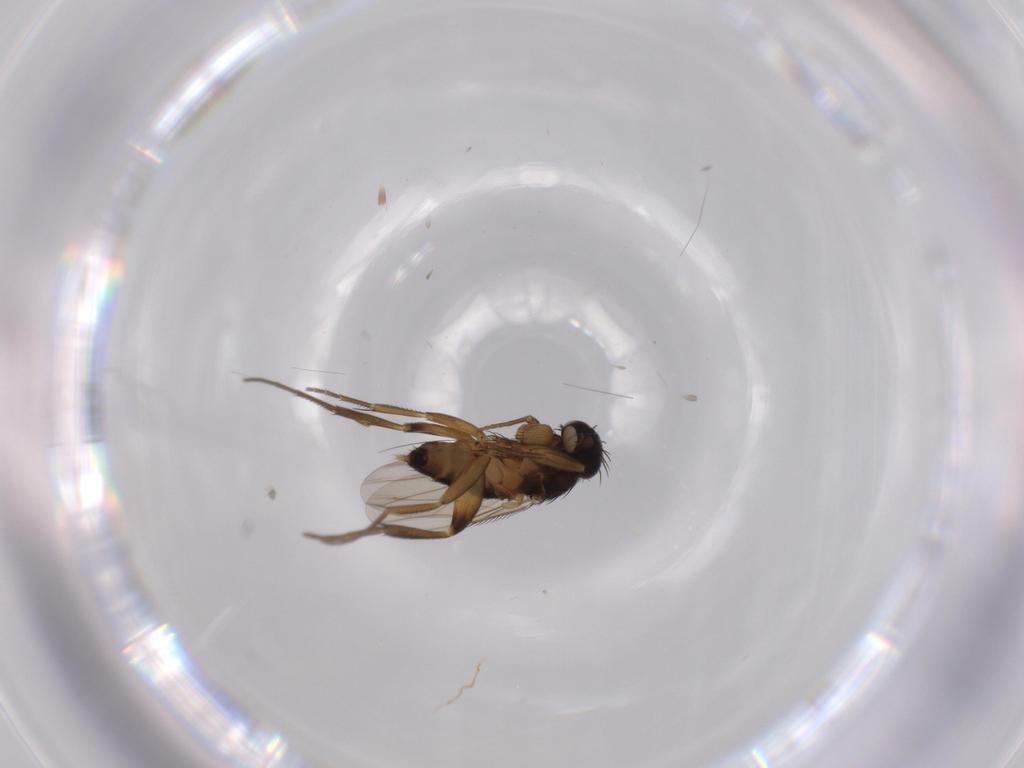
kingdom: Animalia
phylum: Arthropoda
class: Insecta
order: Diptera
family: Phoridae
